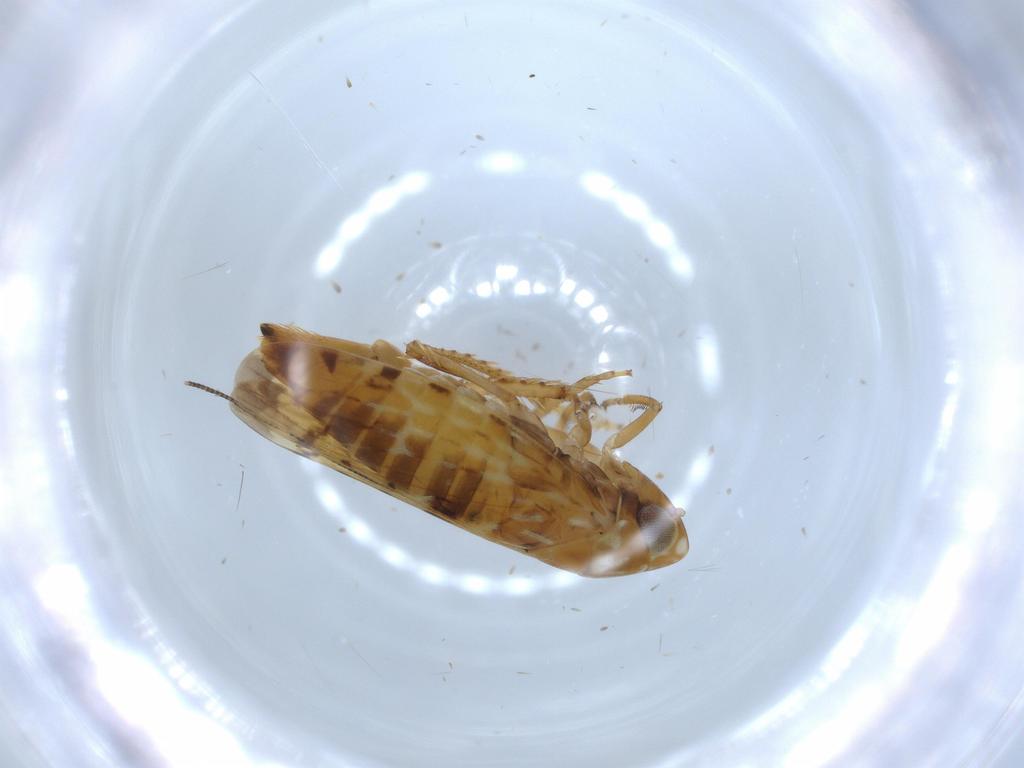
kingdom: Animalia
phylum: Arthropoda
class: Insecta
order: Hemiptera
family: Cicadellidae
